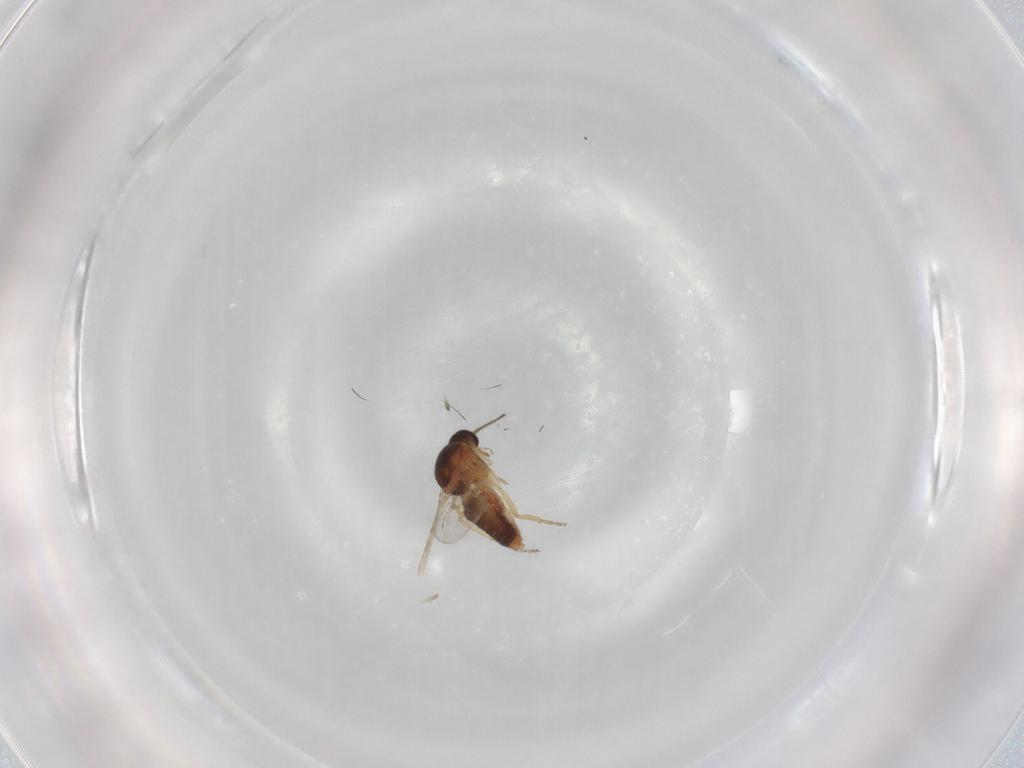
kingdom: Animalia
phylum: Arthropoda
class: Insecta
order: Diptera
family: Ceratopogonidae
